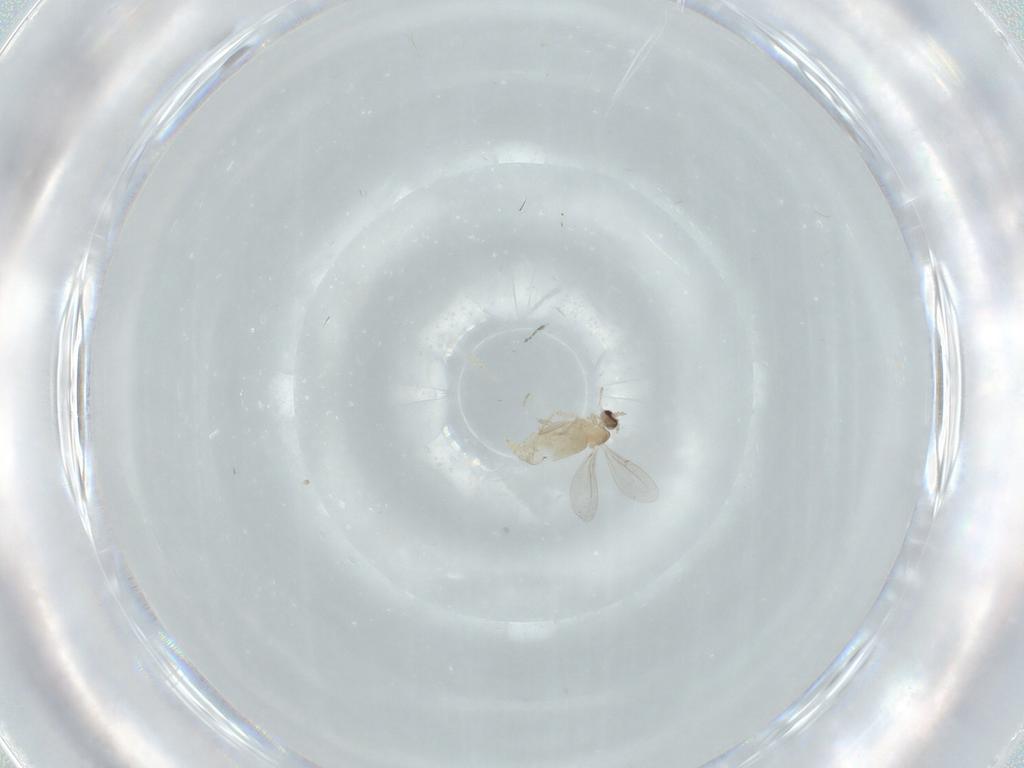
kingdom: Animalia
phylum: Arthropoda
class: Insecta
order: Diptera
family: Cecidomyiidae
